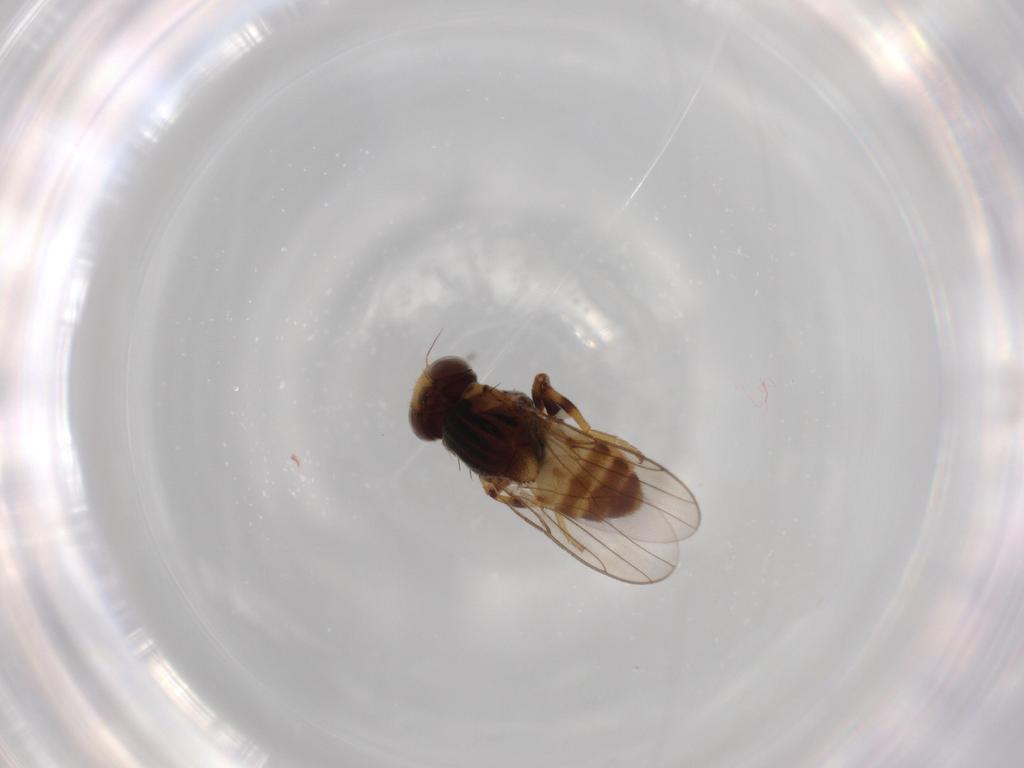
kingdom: Animalia
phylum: Arthropoda
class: Insecta
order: Diptera
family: Chloropidae
